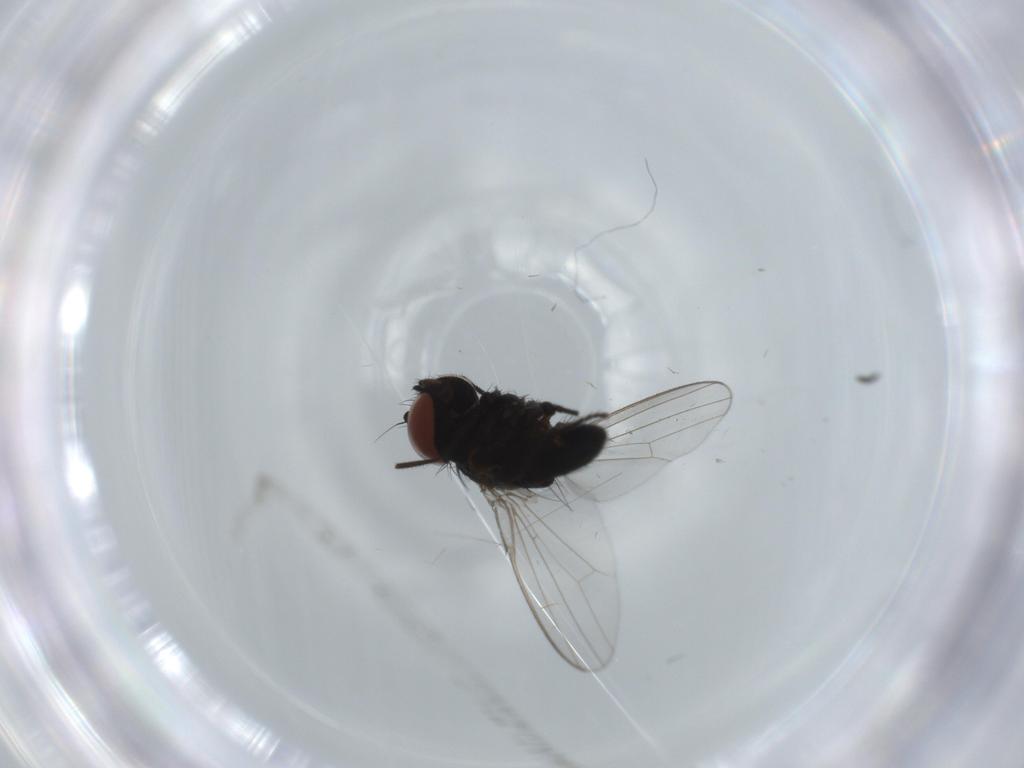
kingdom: Animalia
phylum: Arthropoda
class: Insecta
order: Diptera
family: Milichiidae
